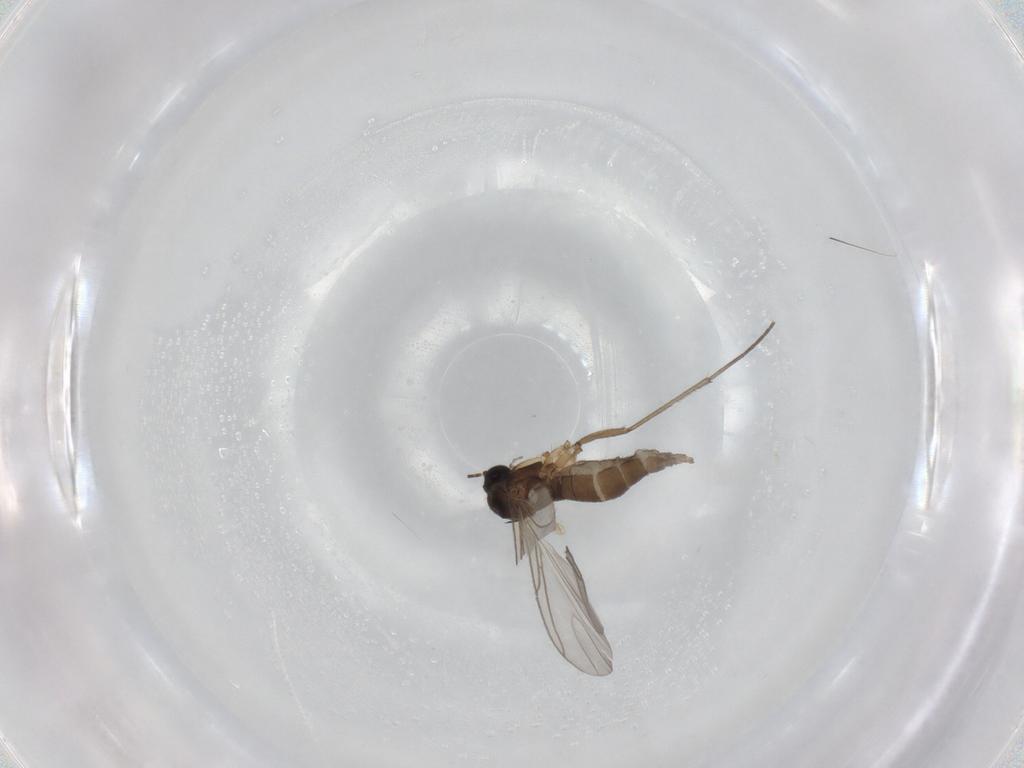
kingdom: Animalia
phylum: Arthropoda
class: Insecta
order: Diptera
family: Sciaridae
